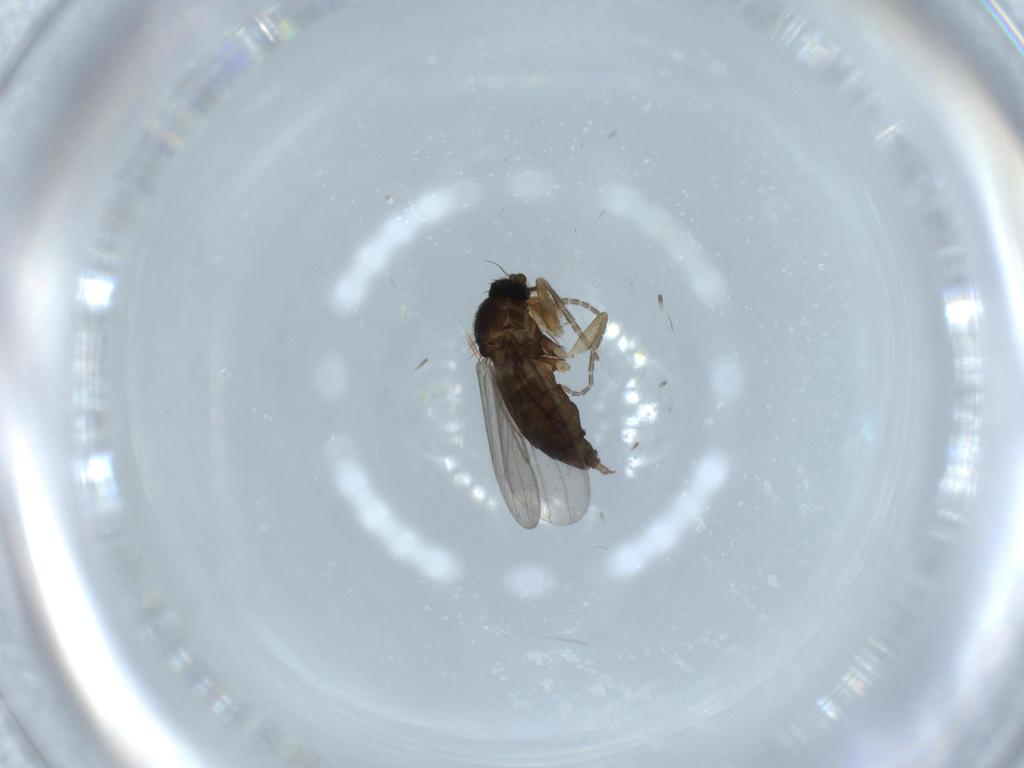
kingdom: Animalia
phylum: Arthropoda
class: Insecta
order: Diptera
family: Phoridae
